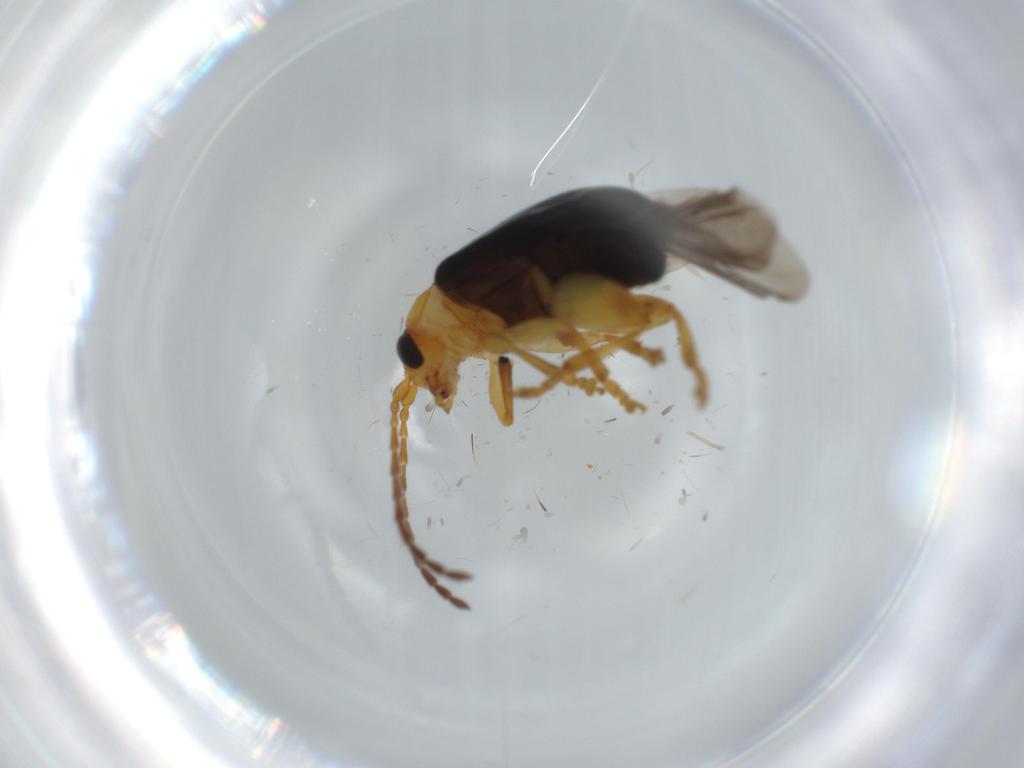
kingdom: Animalia
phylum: Arthropoda
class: Insecta
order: Coleoptera
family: Chrysomelidae
